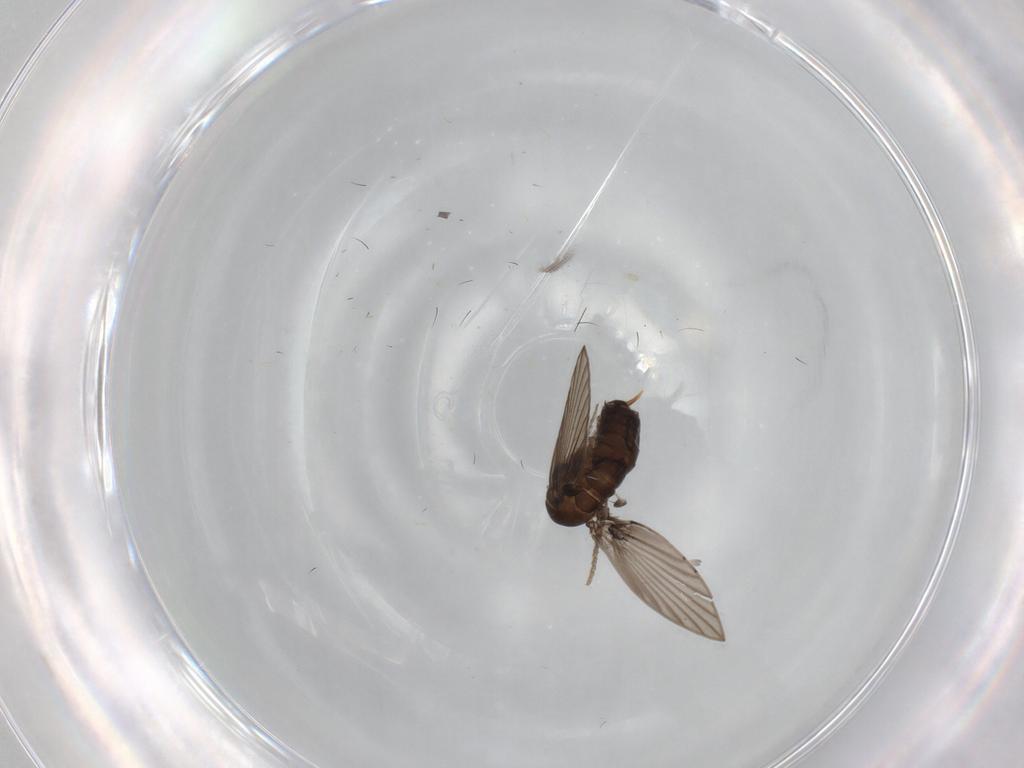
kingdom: Animalia
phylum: Arthropoda
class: Insecta
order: Diptera
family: Psychodidae
